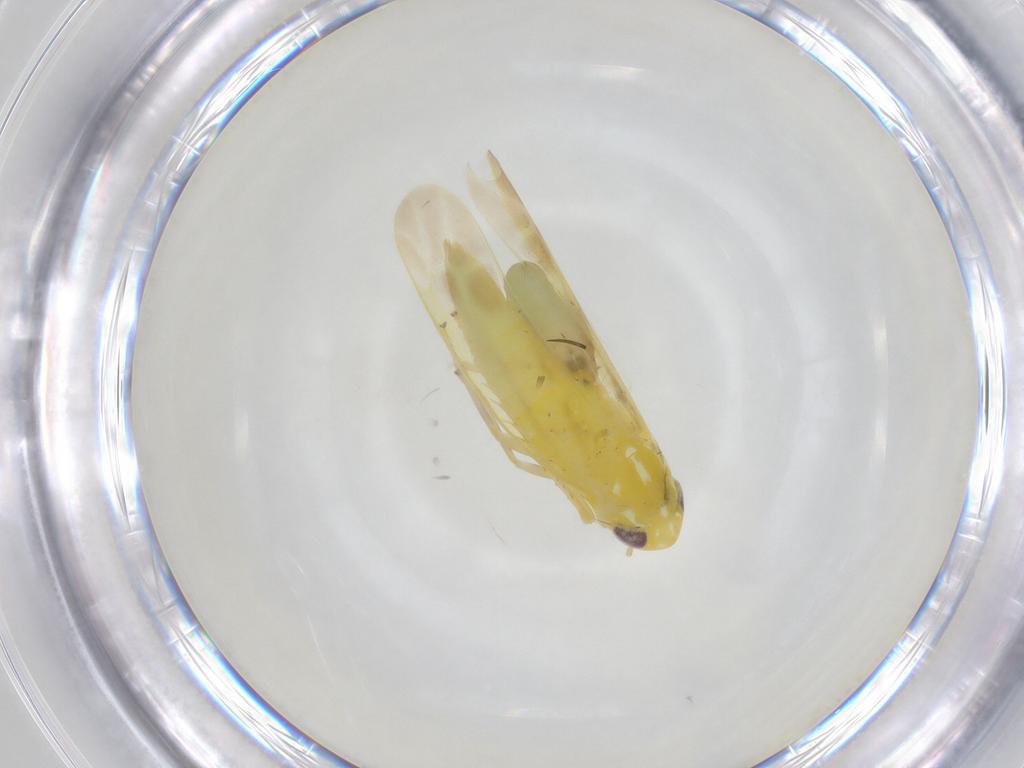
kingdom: Animalia
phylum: Arthropoda
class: Insecta
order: Hemiptera
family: Cicadellidae
